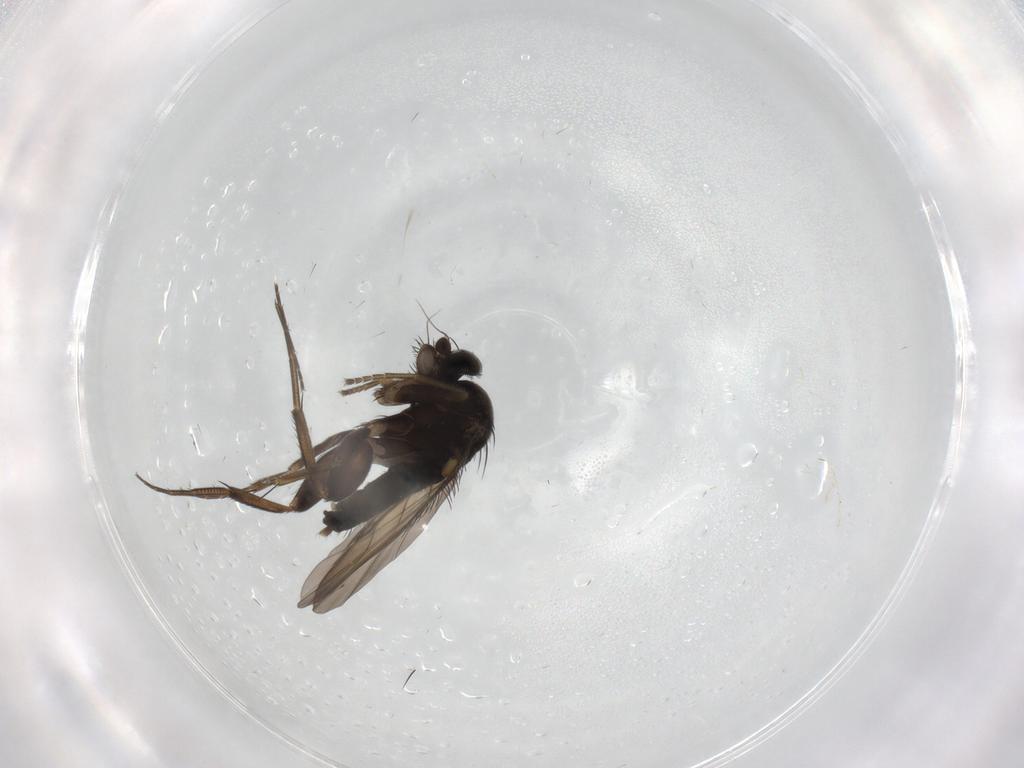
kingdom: Animalia
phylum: Arthropoda
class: Insecta
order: Diptera
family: Phoridae
